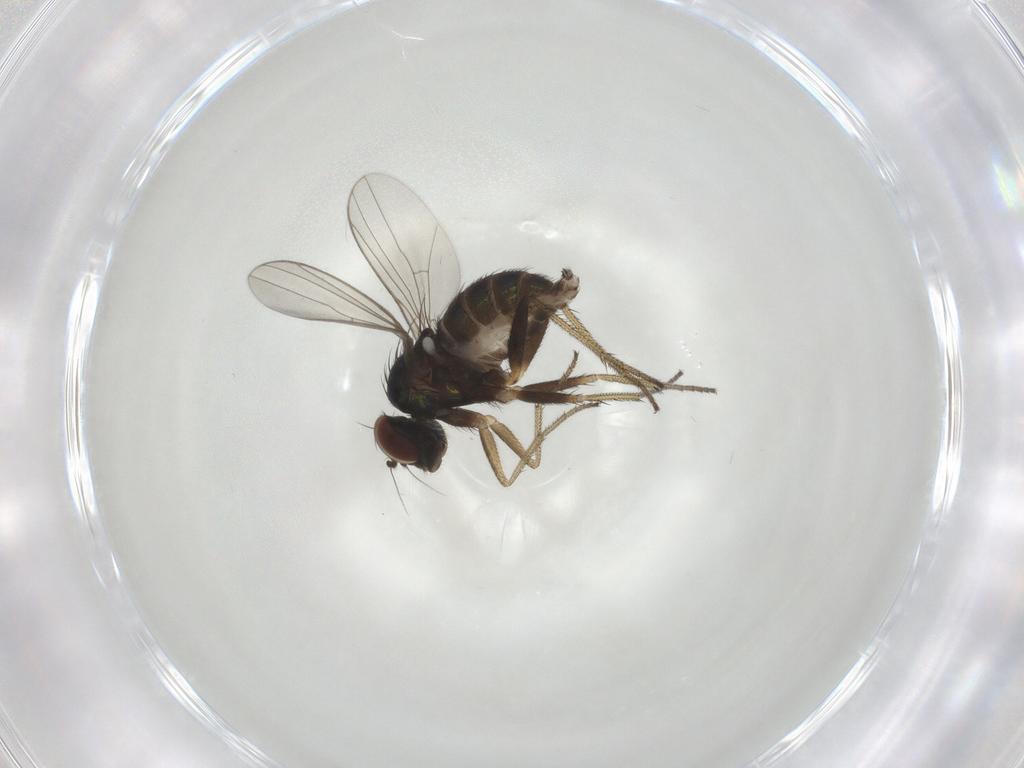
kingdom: Animalia
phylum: Arthropoda
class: Insecta
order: Diptera
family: Dolichopodidae
